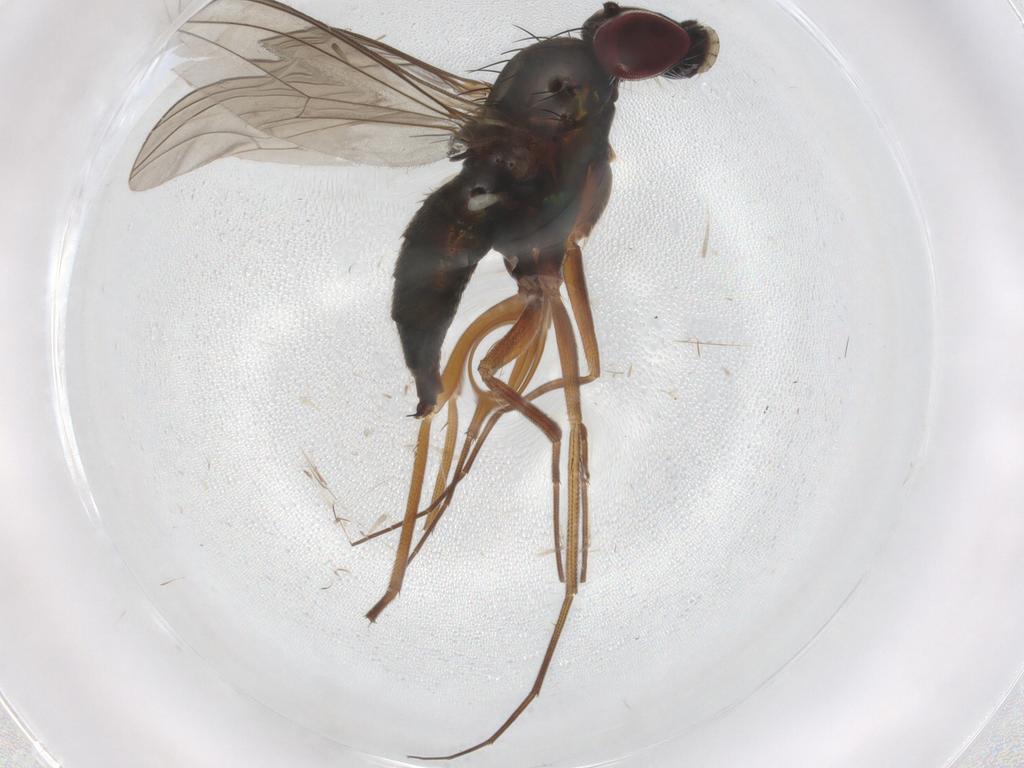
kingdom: Animalia
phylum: Arthropoda
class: Insecta
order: Diptera
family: Dolichopodidae
